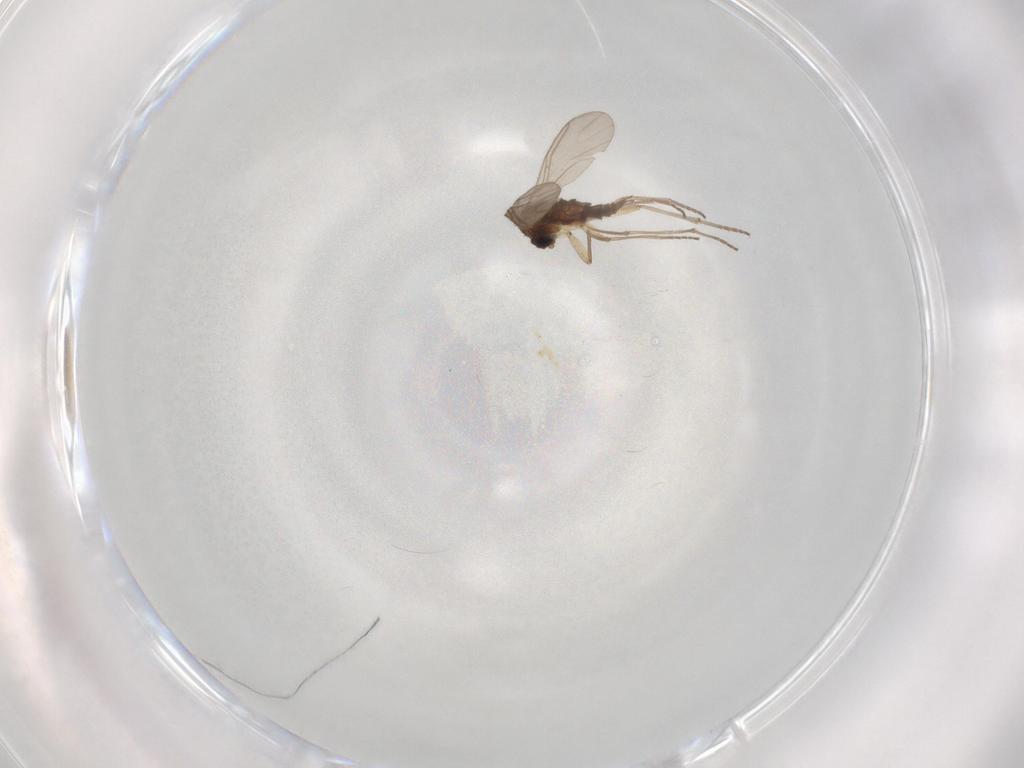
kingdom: Animalia
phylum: Arthropoda
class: Insecta
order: Diptera
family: Sciaridae
